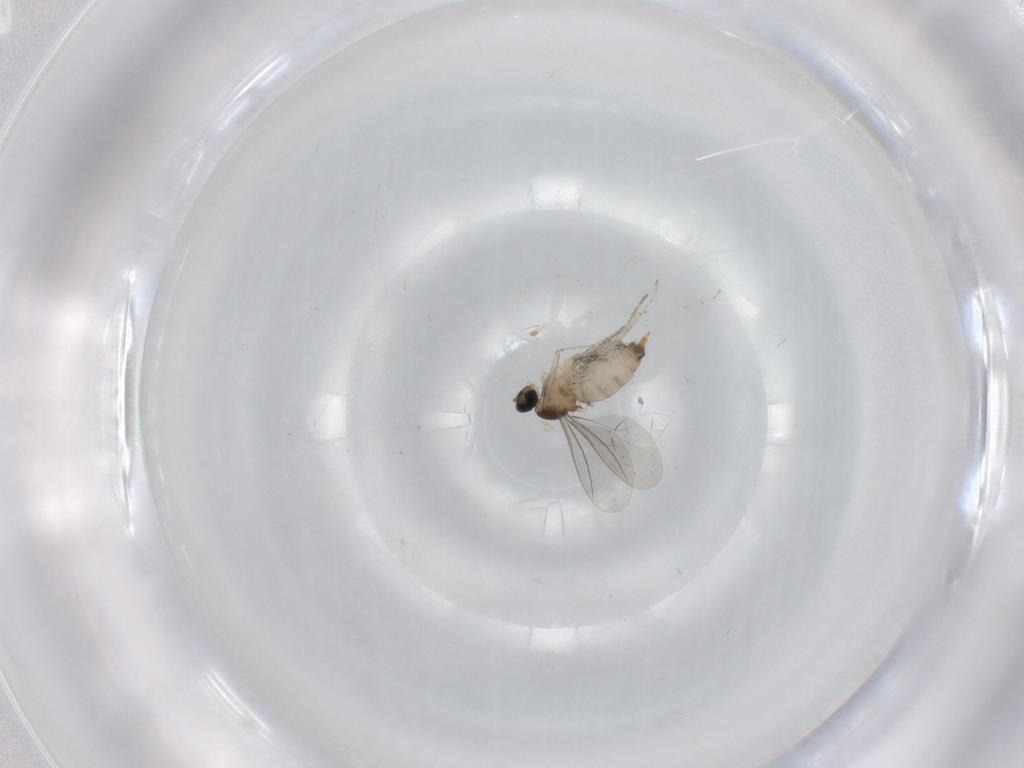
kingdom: Animalia
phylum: Arthropoda
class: Insecta
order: Diptera
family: Cecidomyiidae
